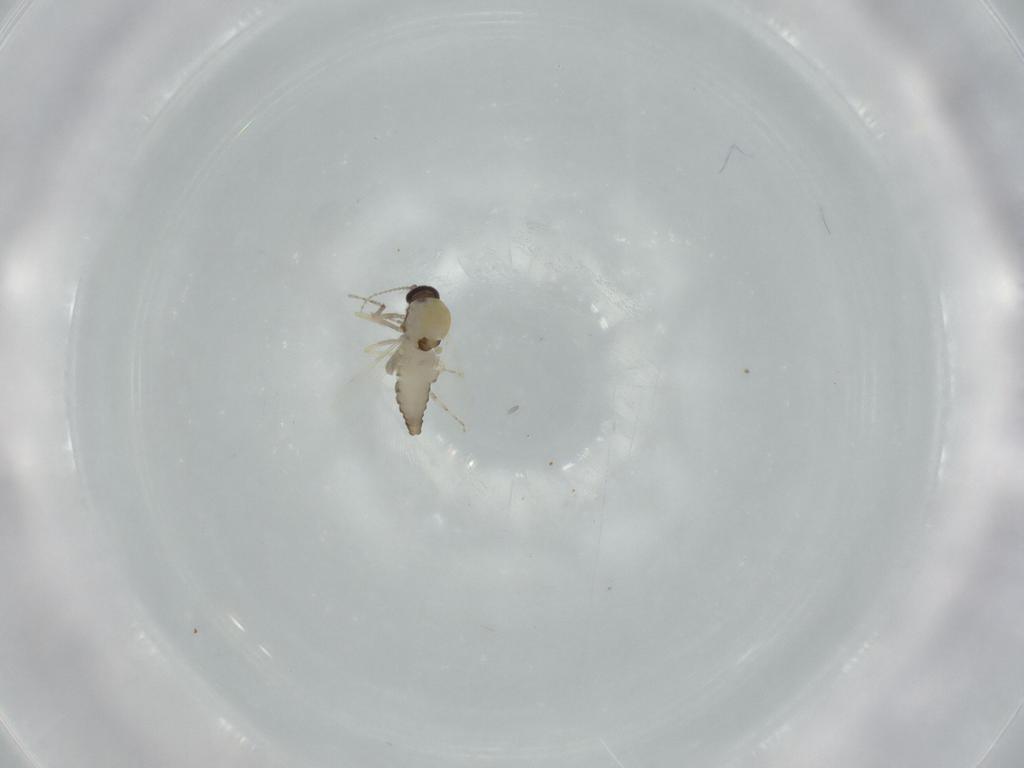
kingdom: Animalia
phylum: Arthropoda
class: Insecta
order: Diptera
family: Ceratopogonidae
